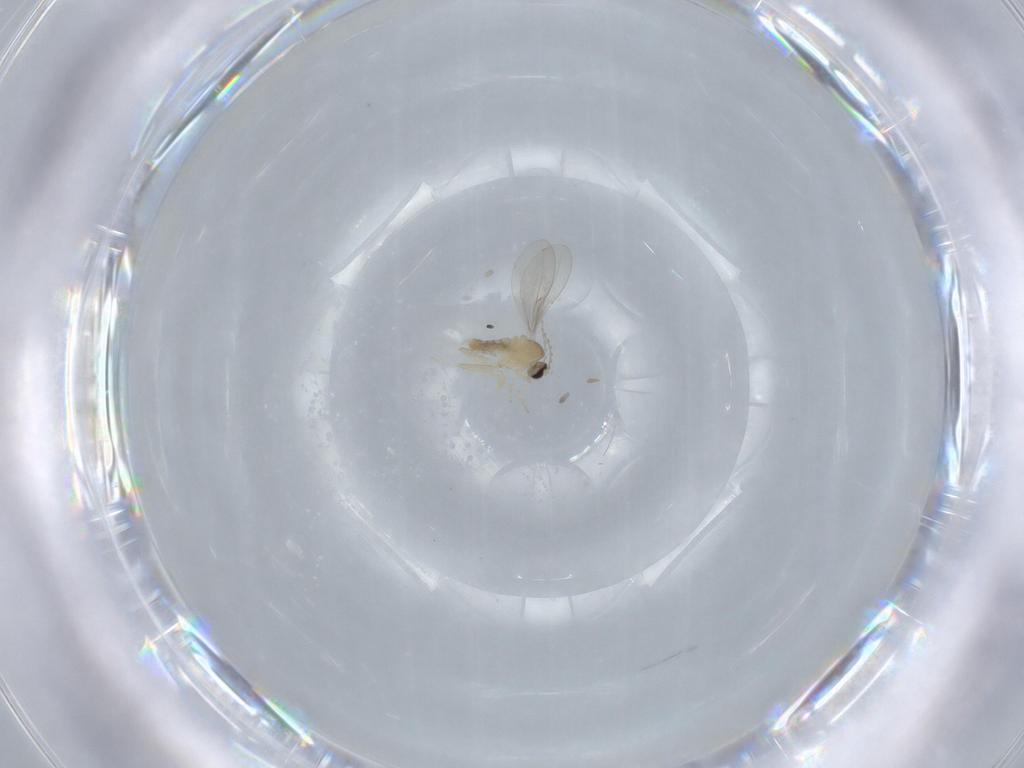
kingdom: Animalia
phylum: Arthropoda
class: Insecta
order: Diptera
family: Cecidomyiidae
